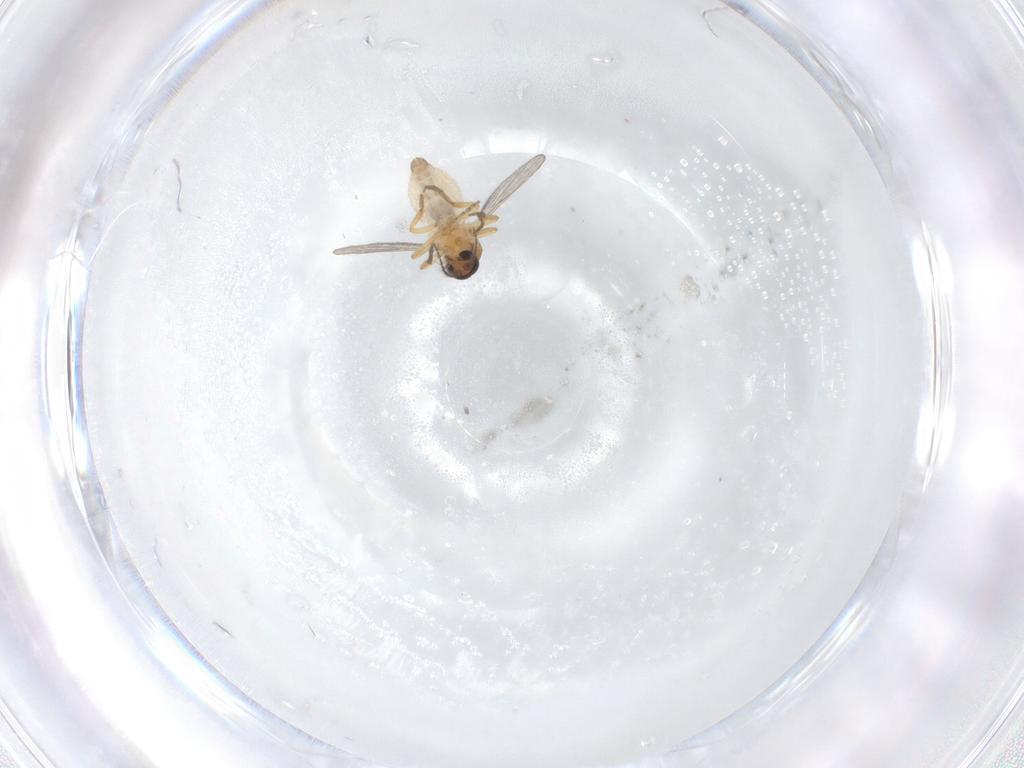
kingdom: Animalia
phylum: Arthropoda
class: Insecta
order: Diptera
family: Ceratopogonidae
